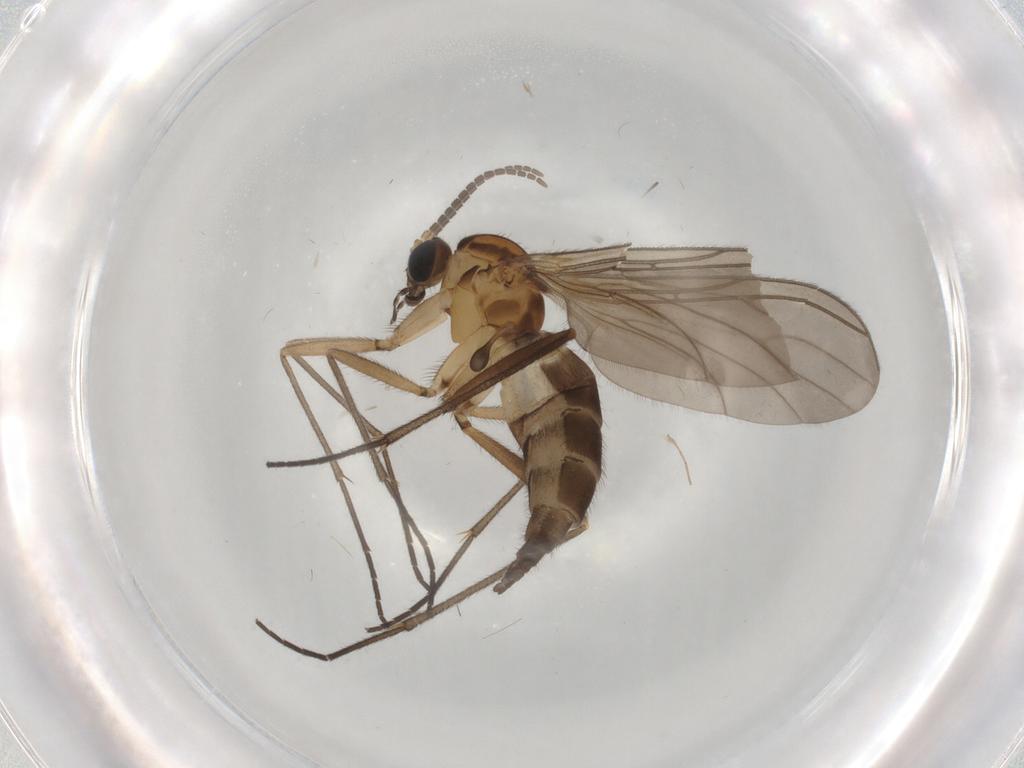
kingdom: Animalia
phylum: Arthropoda
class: Insecta
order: Diptera
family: Sciaridae
